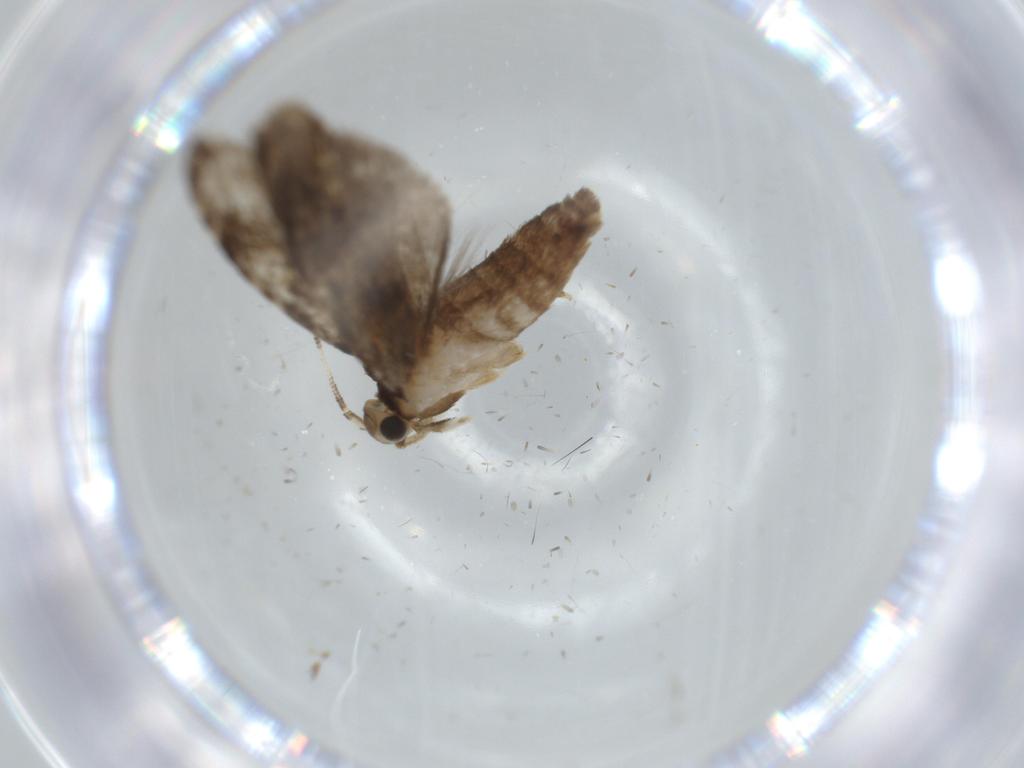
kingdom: Animalia
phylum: Arthropoda
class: Insecta
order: Lepidoptera
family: Tineidae
